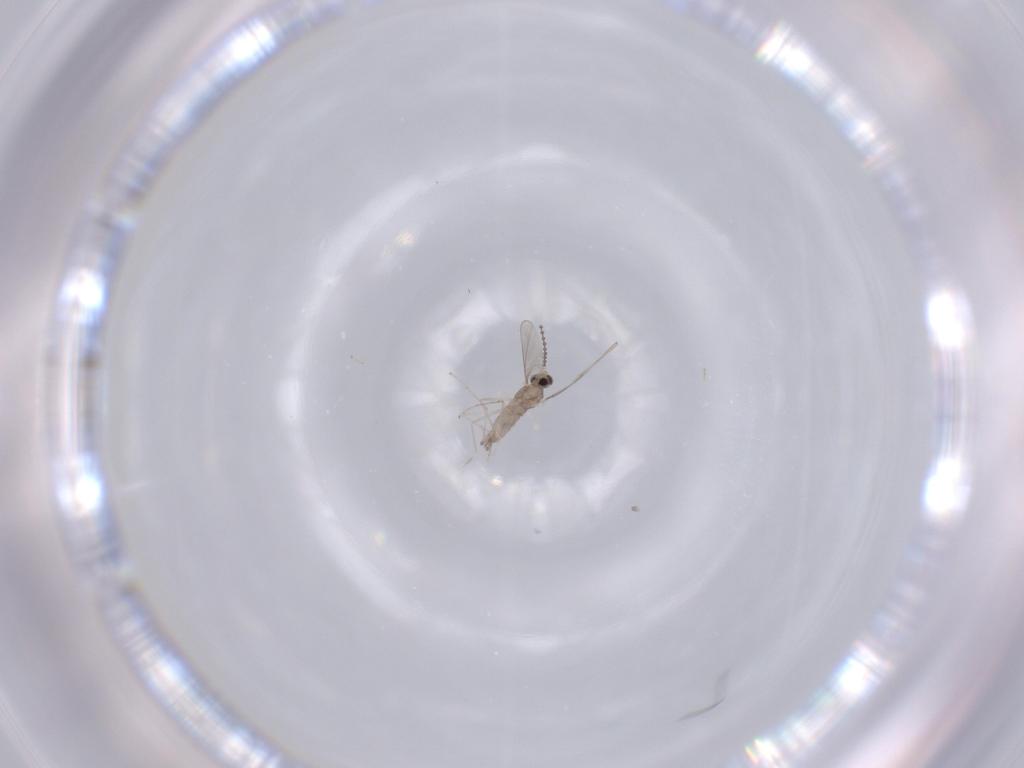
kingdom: Animalia
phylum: Arthropoda
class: Insecta
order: Diptera
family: Cecidomyiidae
